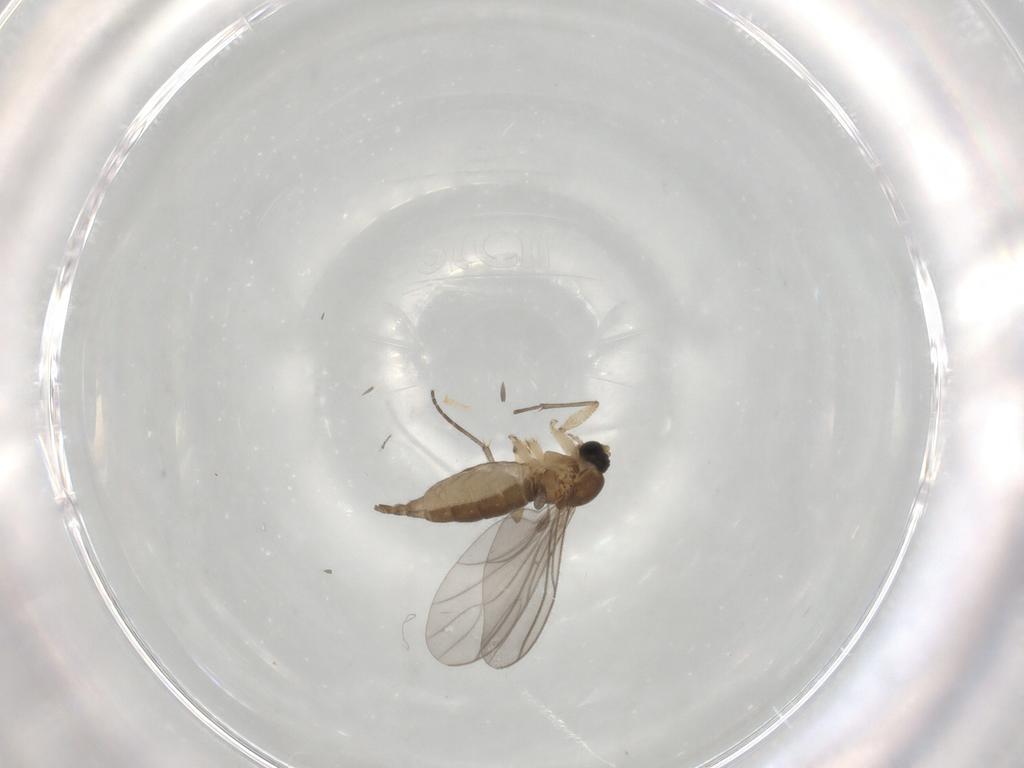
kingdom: Animalia
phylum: Arthropoda
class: Insecta
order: Diptera
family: Sciaridae
